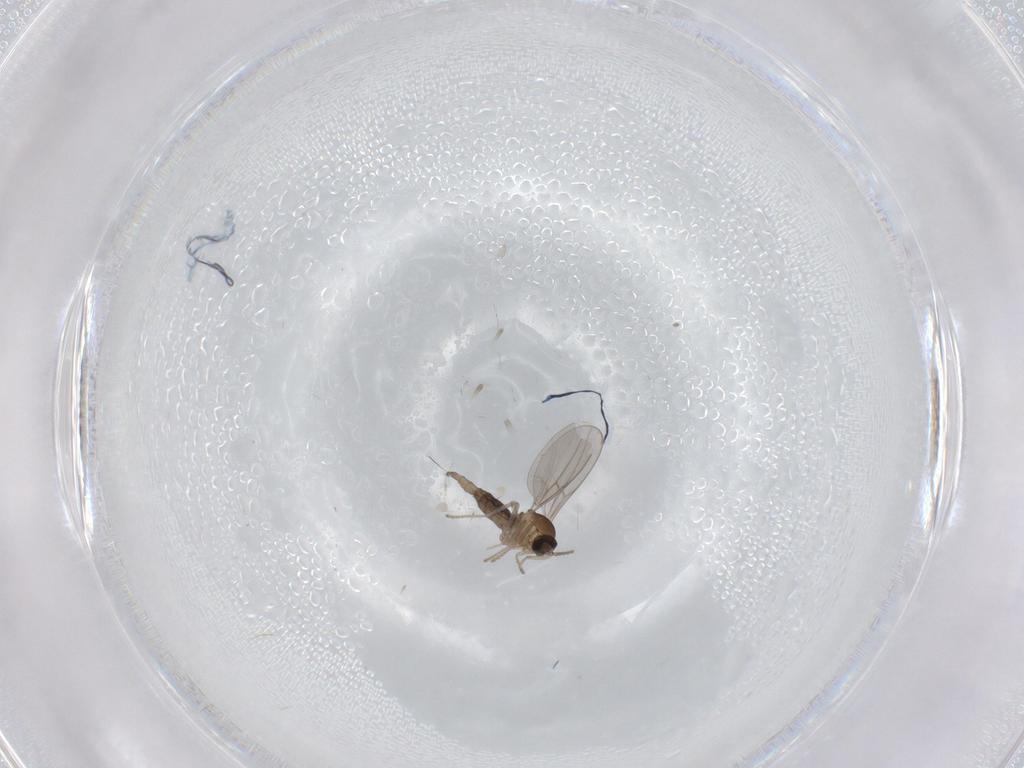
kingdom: Animalia
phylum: Arthropoda
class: Insecta
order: Diptera
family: Cecidomyiidae
